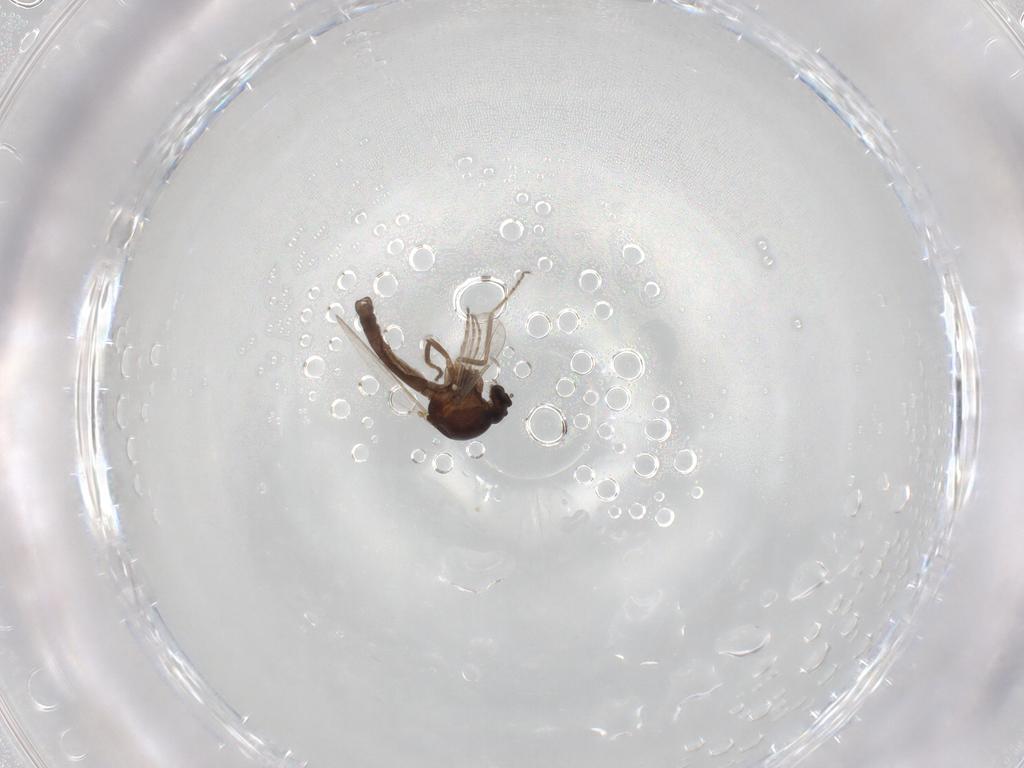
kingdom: Animalia
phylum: Arthropoda
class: Insecta
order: Diptera
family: Ceratopogonidae
